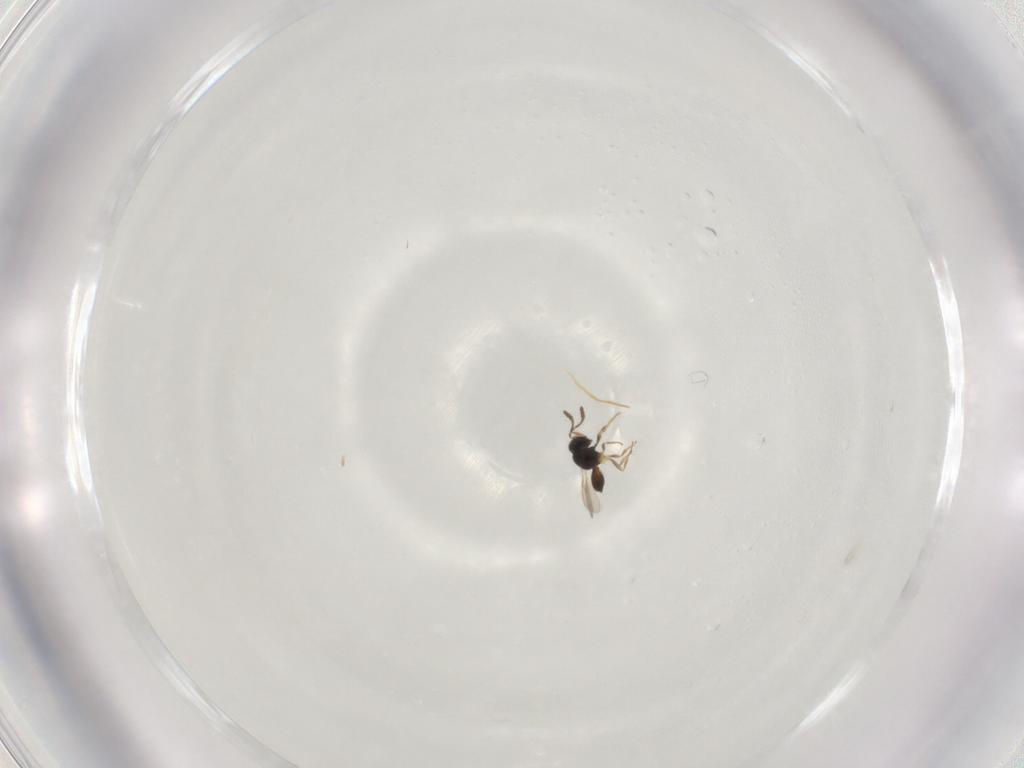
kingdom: Animalia
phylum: Arthropoda
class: Insecta
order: Hymenoptera
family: Scelionidae
